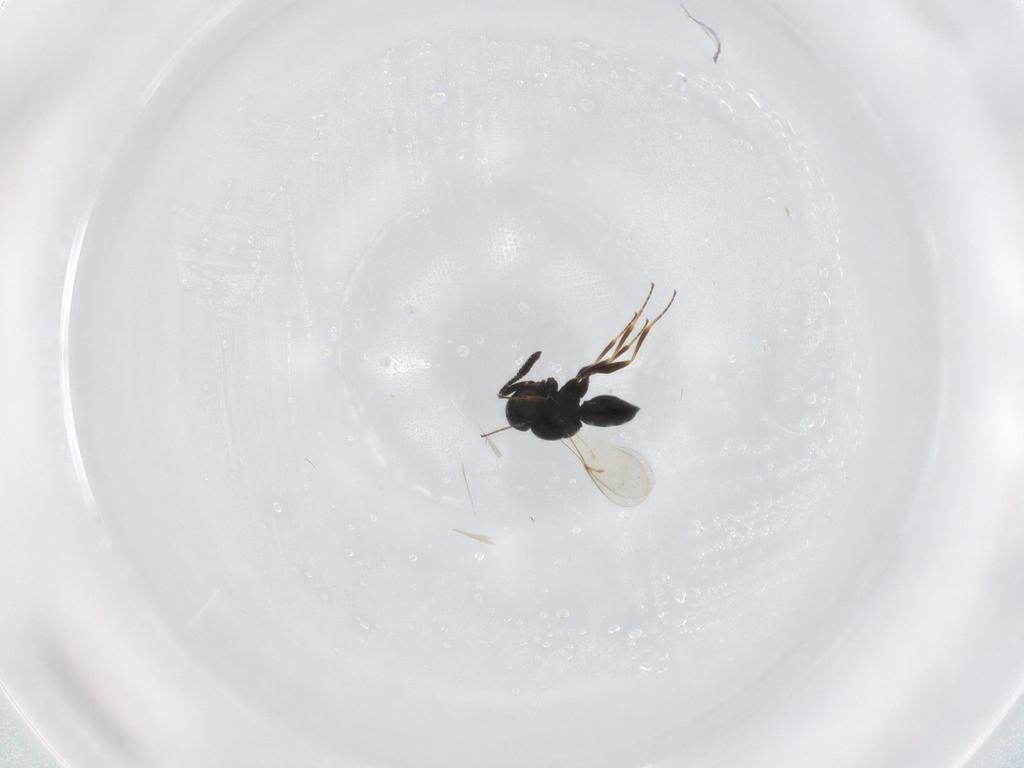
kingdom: Animalia
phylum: Arthropoda
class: Insecta
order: Hymenoptera
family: Scelionidae
